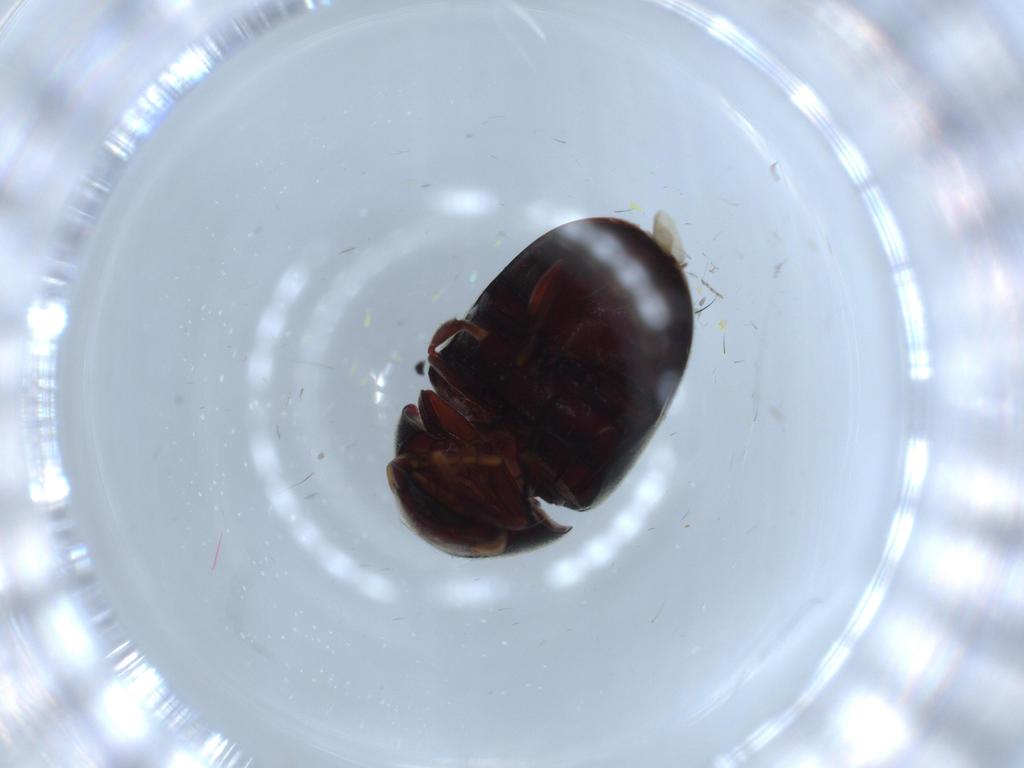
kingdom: Animalia
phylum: Arthropoda
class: Insecta
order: Coleoptera
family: Ptinidae
